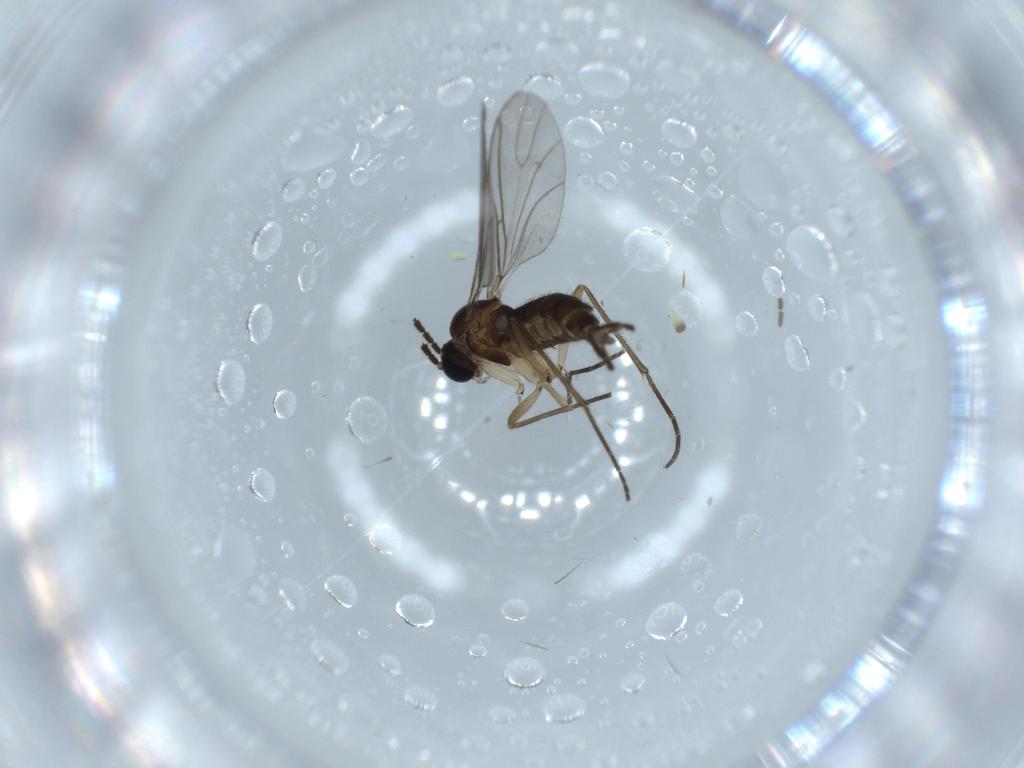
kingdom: Animalia
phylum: Arthropoda
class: Insecta
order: Diptera
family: Sciaridae
